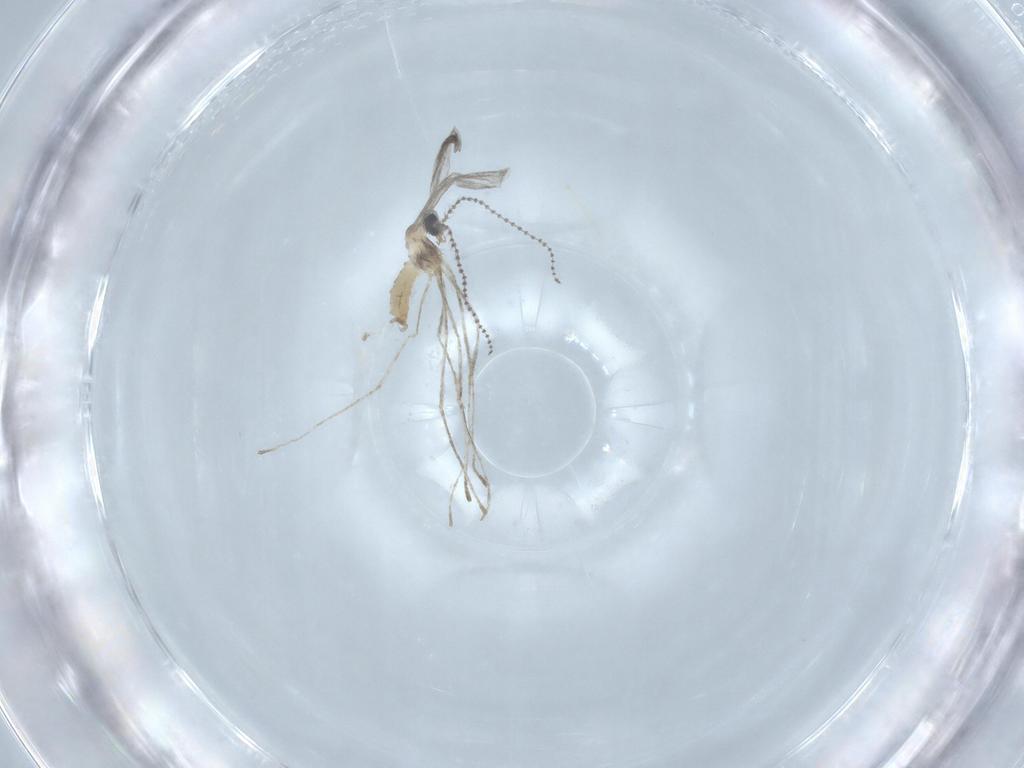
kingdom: Animalia
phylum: Arthropoda
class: Insecta
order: Diptera
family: Cecidomyiidae
